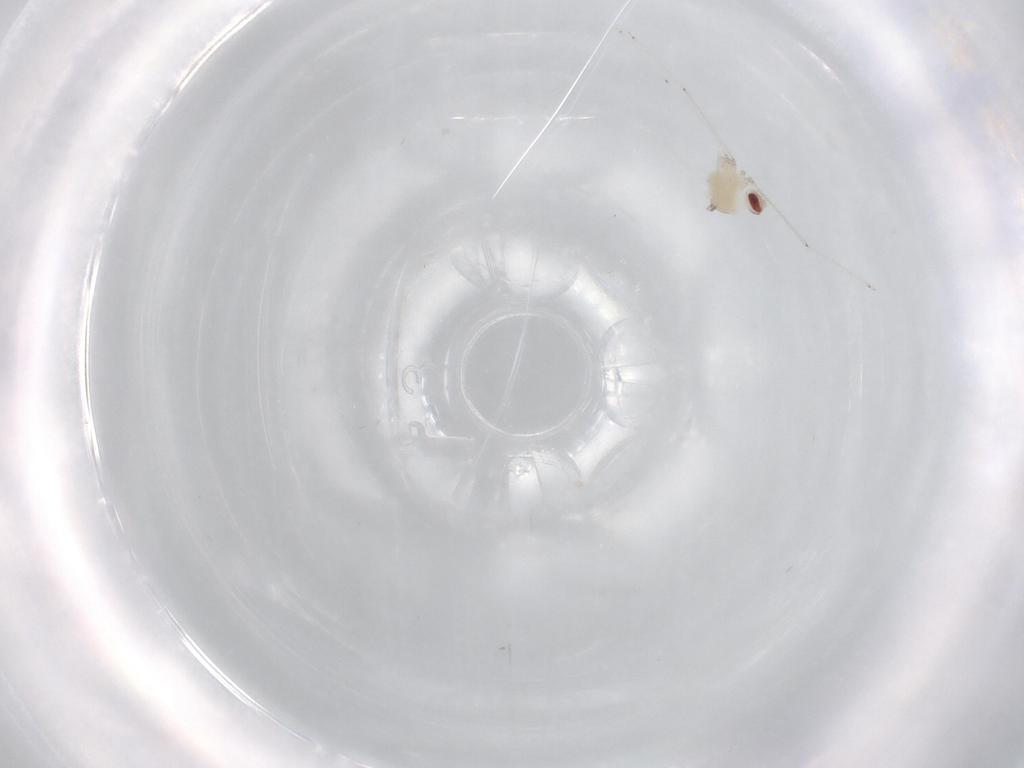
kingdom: Animalia
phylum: Arthropoda
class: Insecta
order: Diptera
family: Cecidomyiidae
